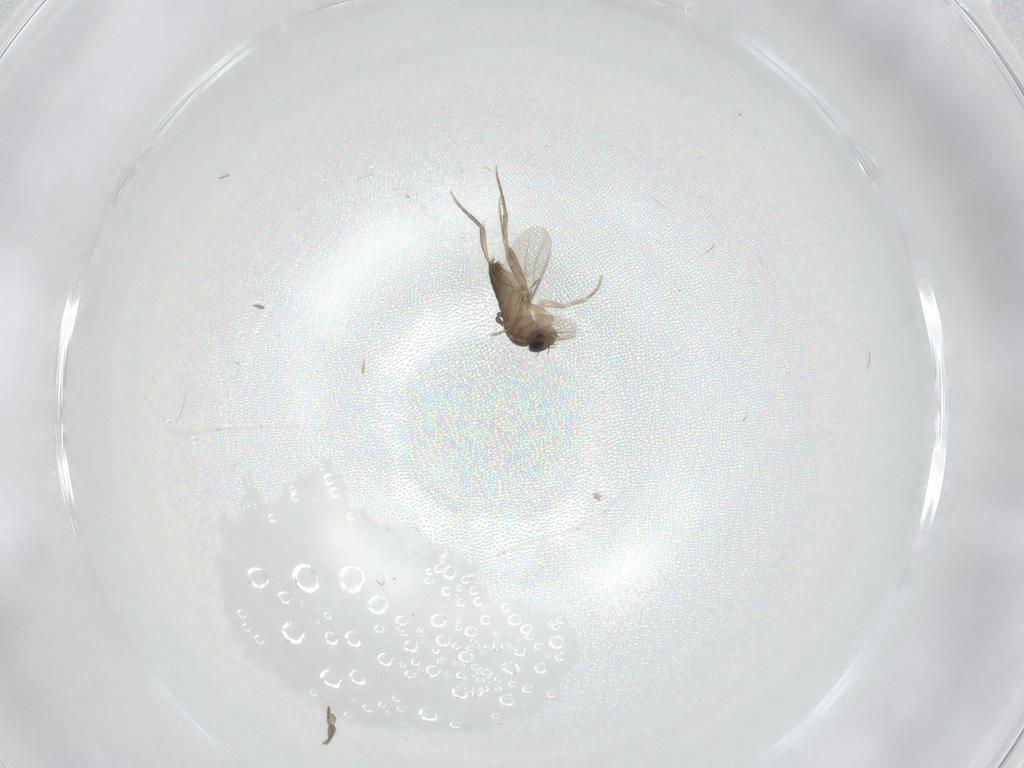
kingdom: Animalia
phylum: Arthropoda
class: Insecta
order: Diptera
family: Cecidomyiidae
